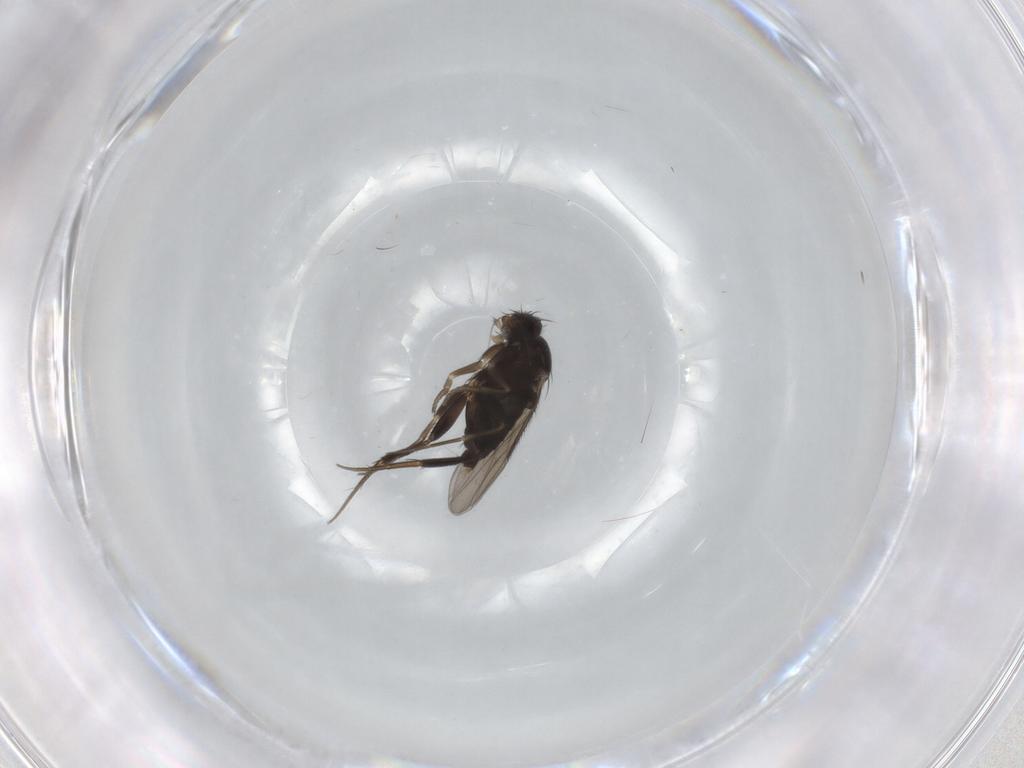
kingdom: Animalia
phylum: Arthropoda
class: Insecta
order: Diptera
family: Phoridae
